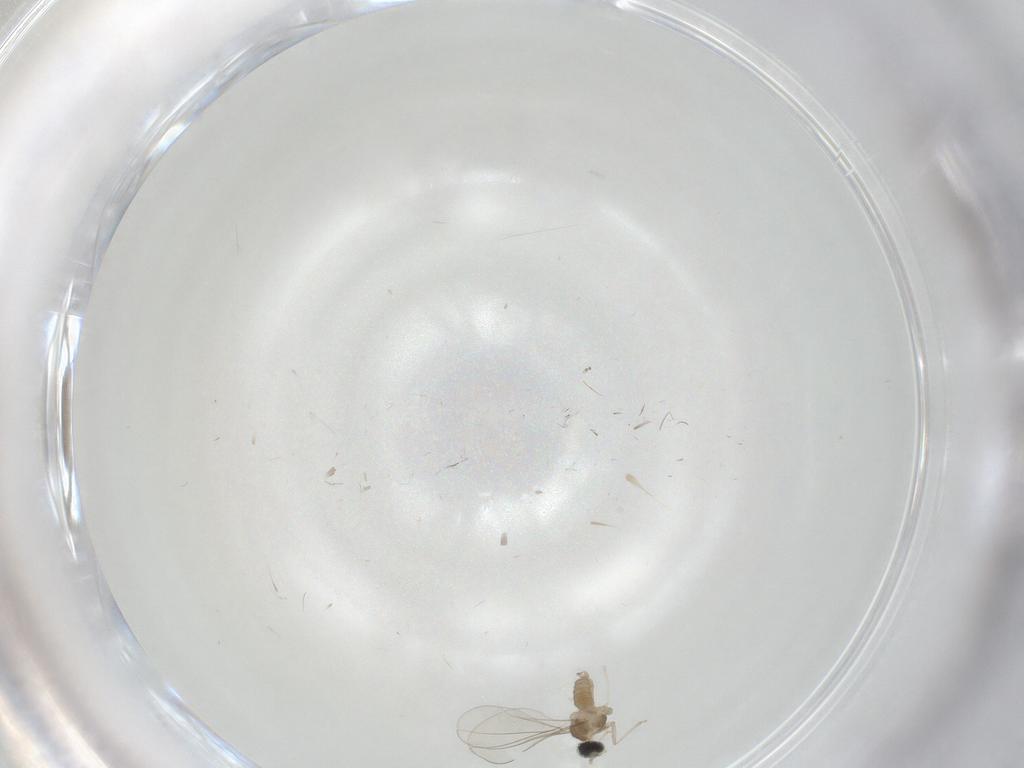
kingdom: Animalia
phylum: Arthropoda
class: Insecta
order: Diptera
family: Cecidomyiidae
